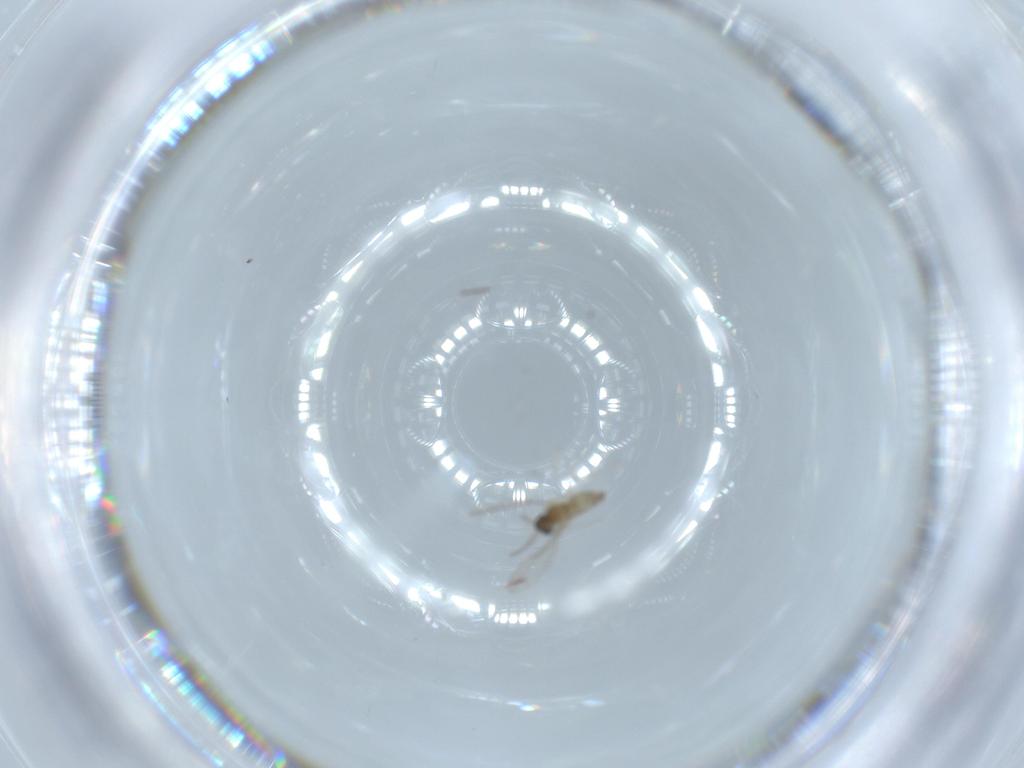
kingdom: Animalia
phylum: Arthropoda
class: Insecta
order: Diptera
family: Cecidomyiidae
